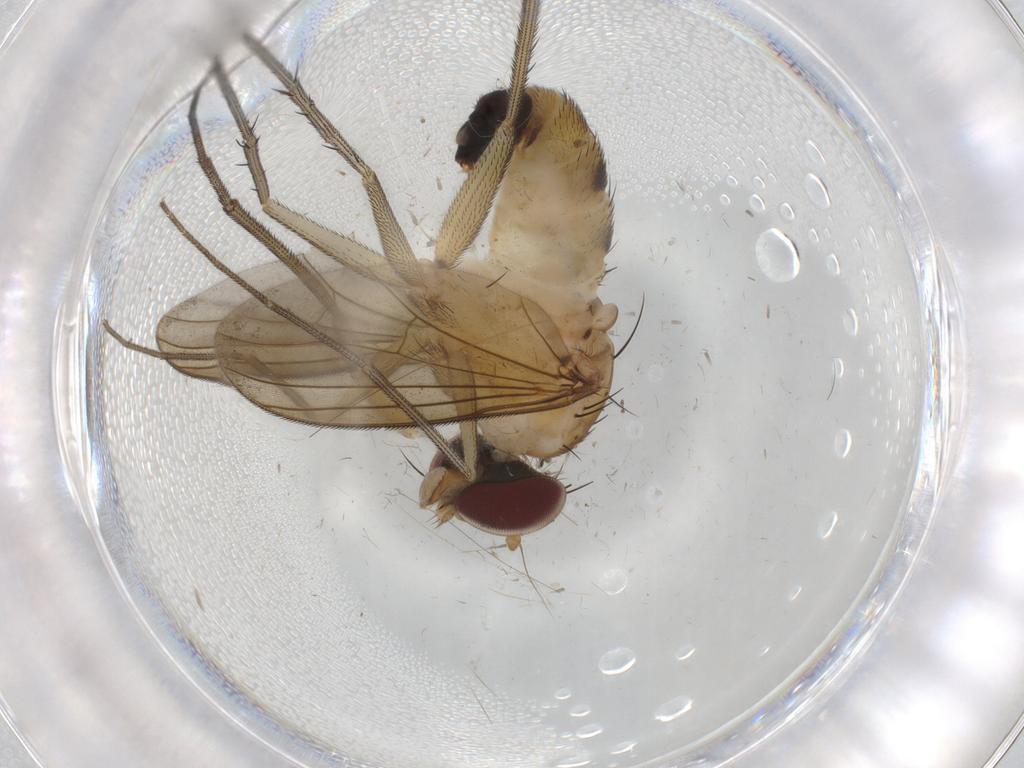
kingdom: Animalia
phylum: Arthropoda
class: Insecta
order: Diptera
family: Dolichopodidae
